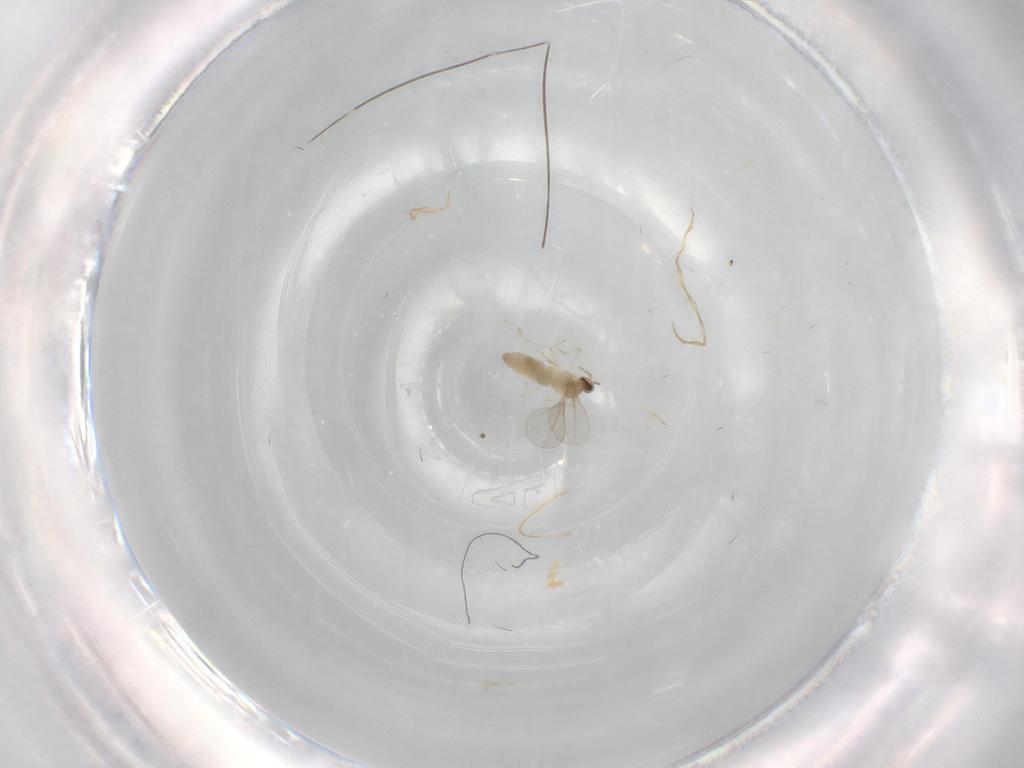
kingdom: Animalia
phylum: Arthropoda
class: Insecta
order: Diptera
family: Cecidomyiidae
